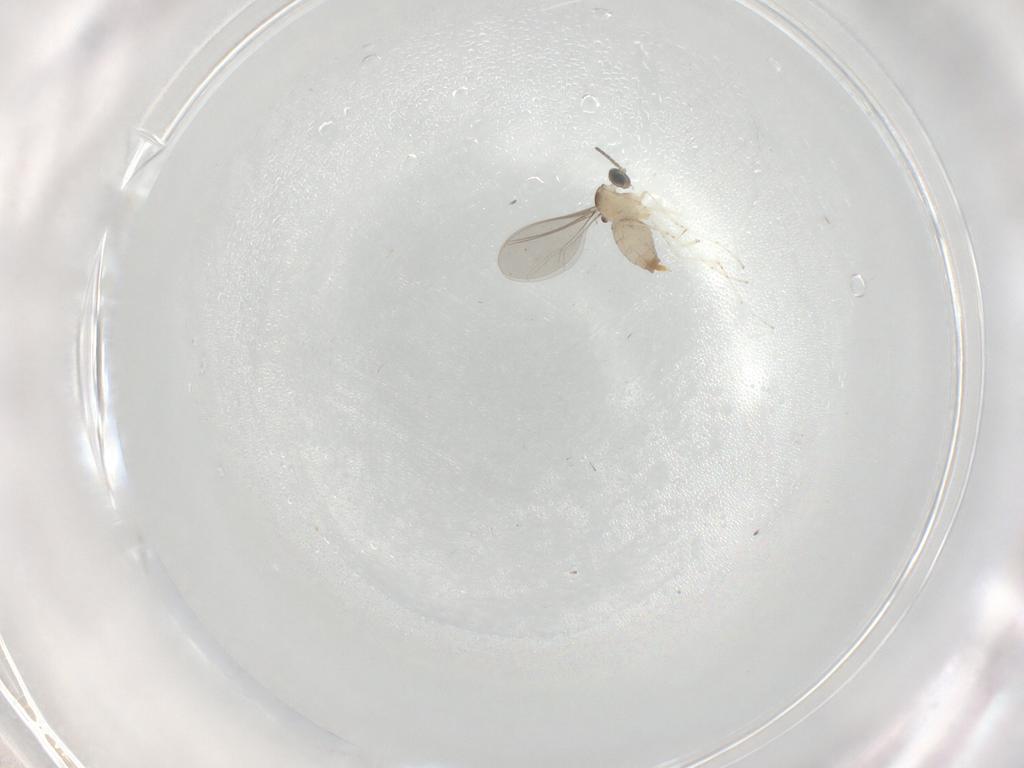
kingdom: Animalia
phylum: Arthropoda
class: Insecta
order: Diptera
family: Cecidomyiidae
